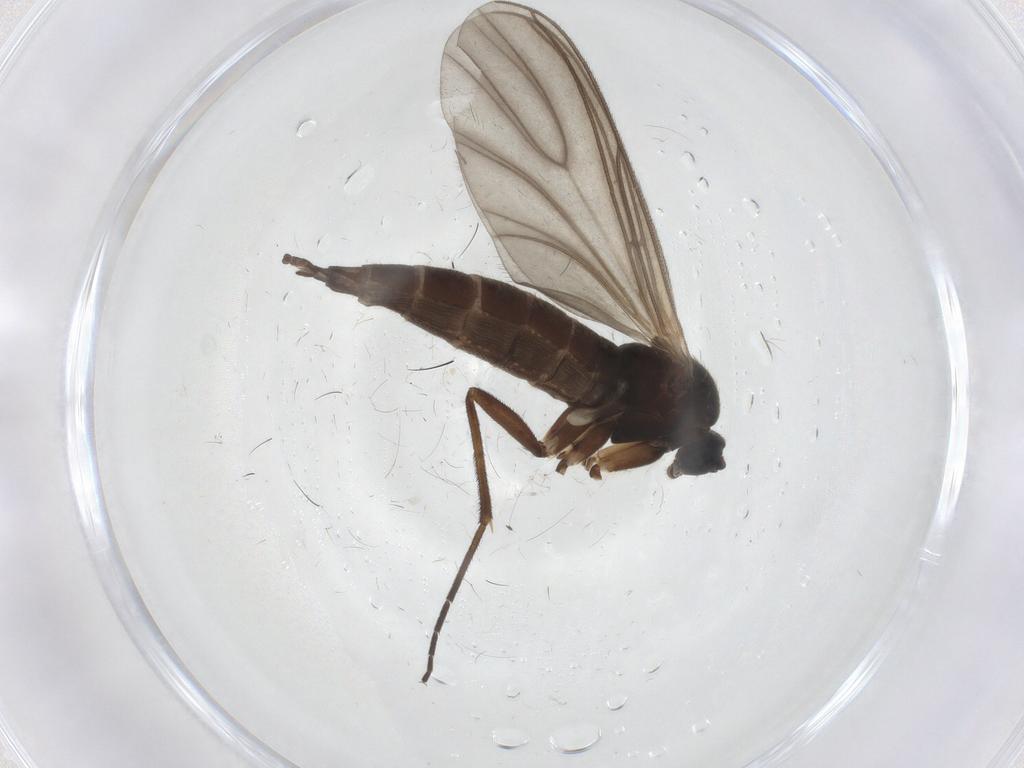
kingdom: Animalia
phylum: Arthropoda
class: Insecta
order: Diptera
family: Sciaridae
